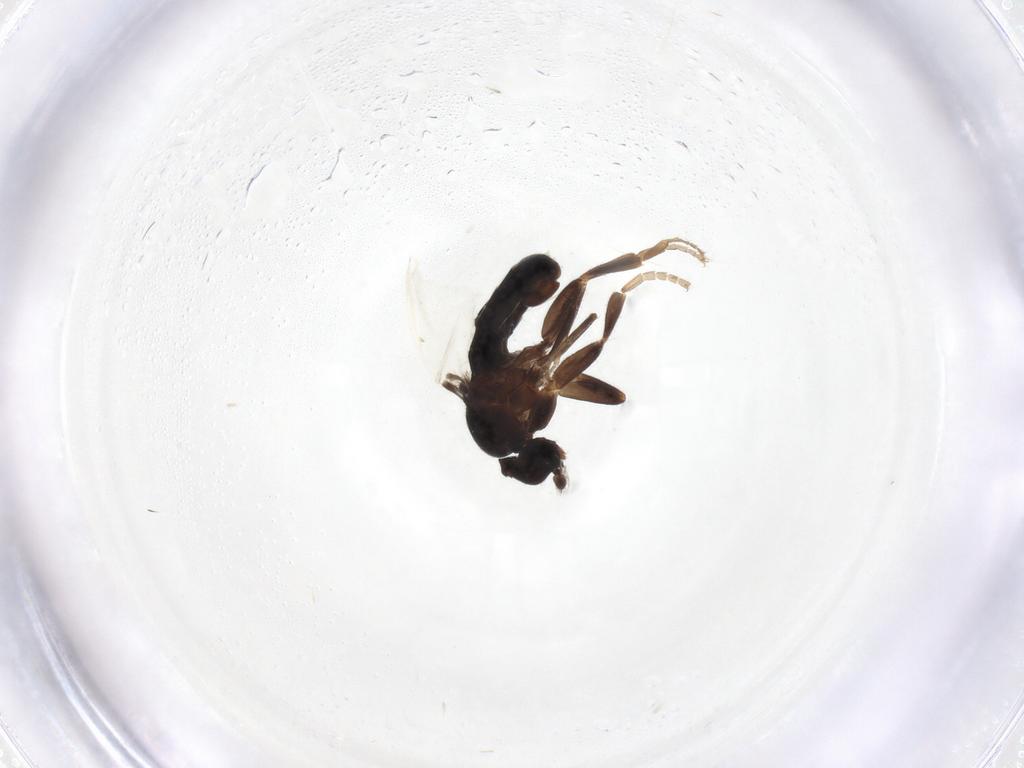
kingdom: Animalia
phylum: Arthropoda
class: Insecta
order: Diptera
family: Phoridae
